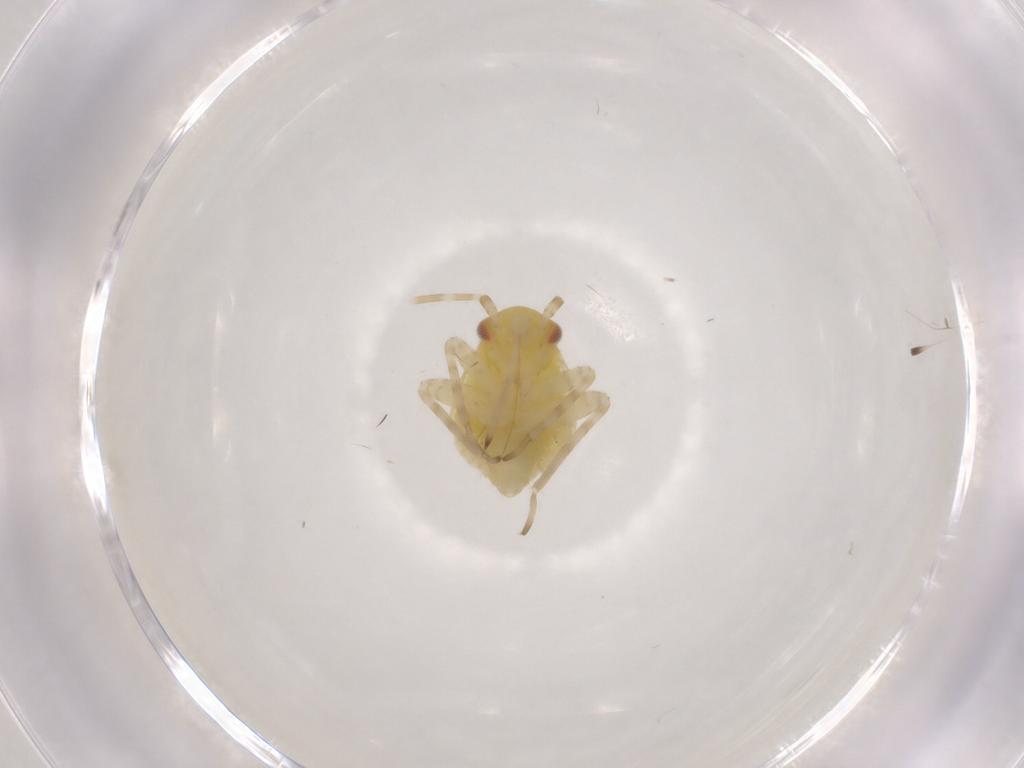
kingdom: Animalia
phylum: Arthropoda
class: Insecta
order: Hemiptera
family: Miridae
